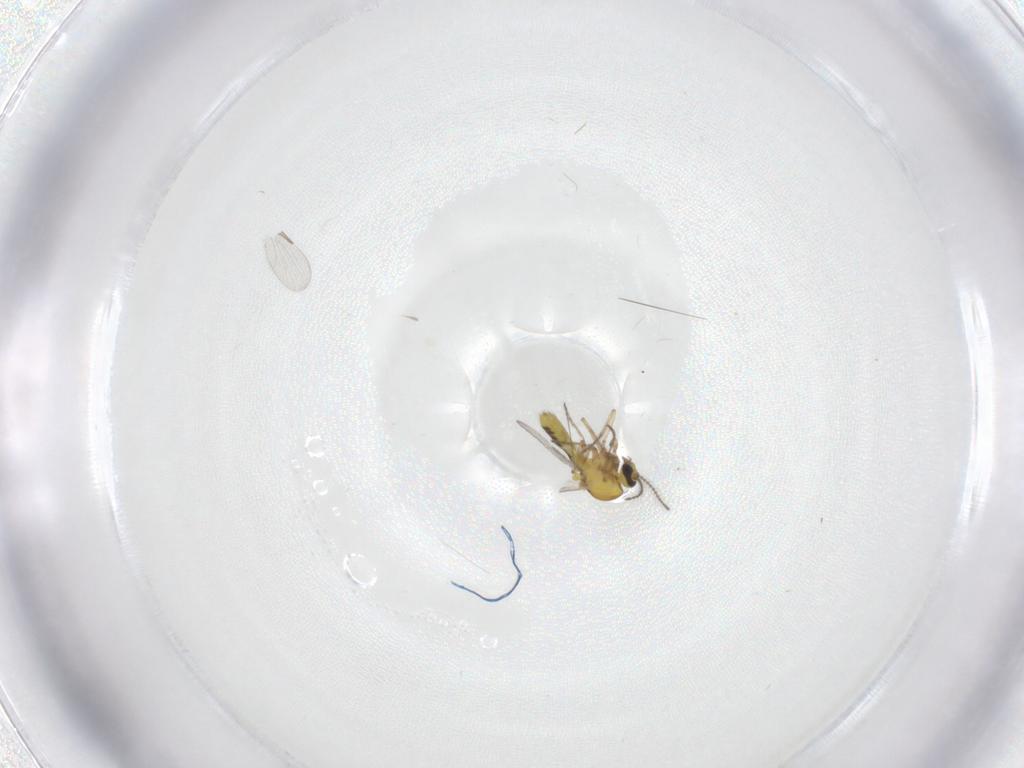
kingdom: Animalia
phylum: Arthropoda
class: Insecta
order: Diptera
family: Ceratopogonidae
